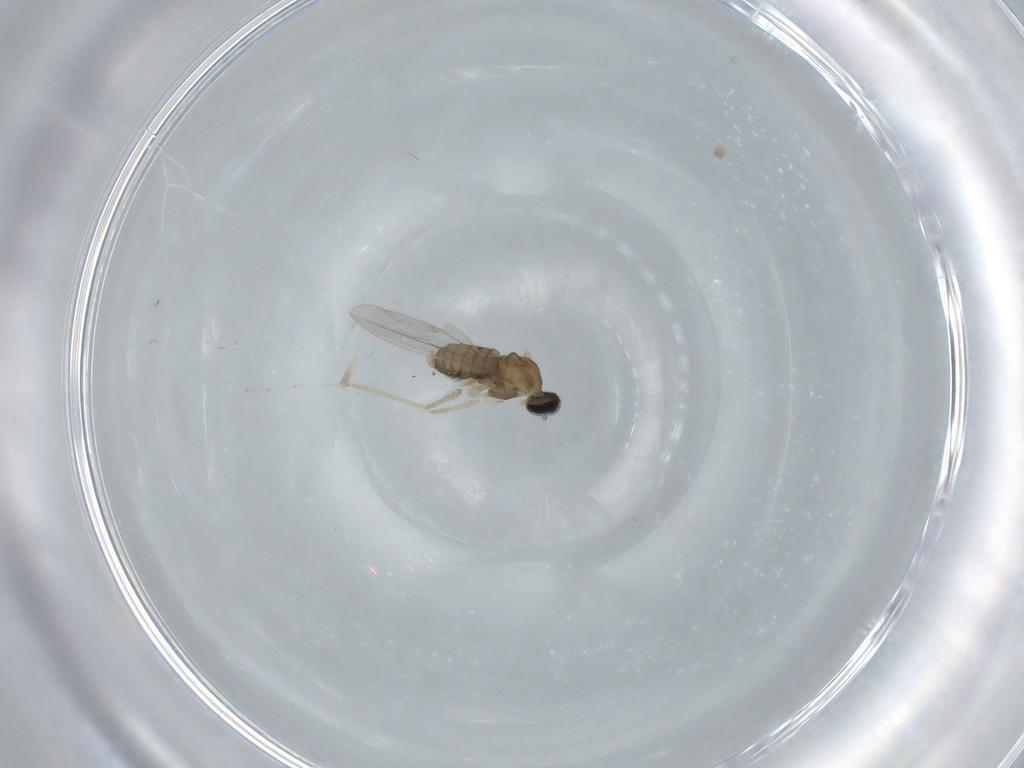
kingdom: Animalia
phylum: Arthropoda
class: Insecta
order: Diptera
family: Cecidomyiidae
